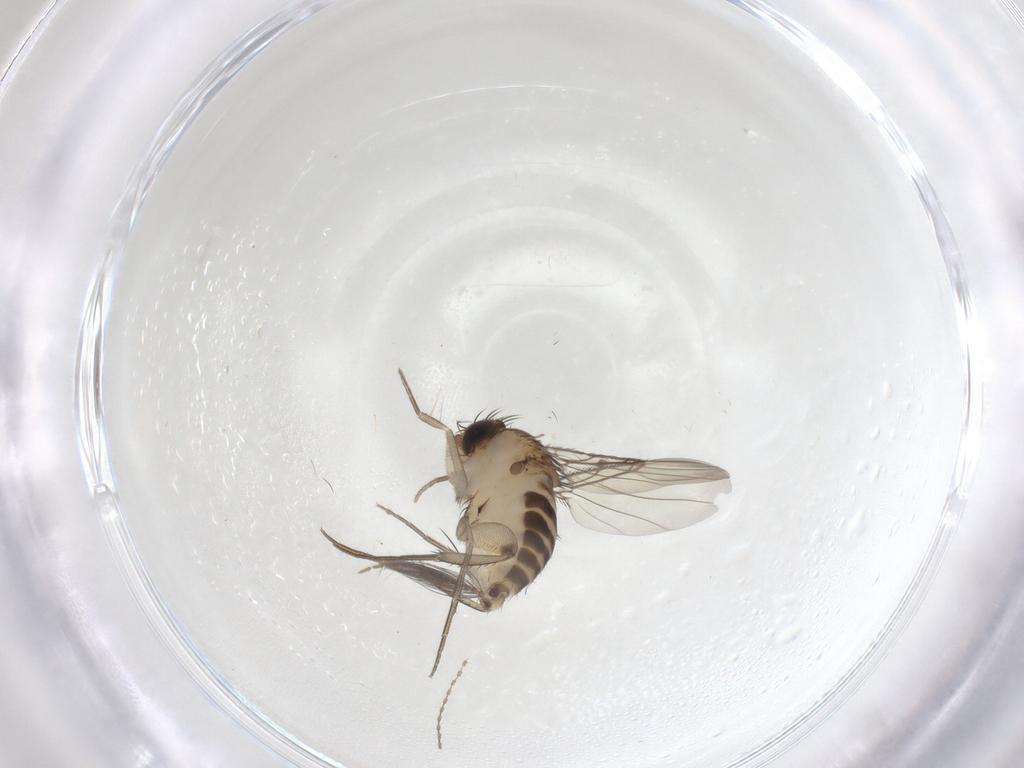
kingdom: Animalia
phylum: Arthropoda
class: Insecta
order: Diptera
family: Phoridae
